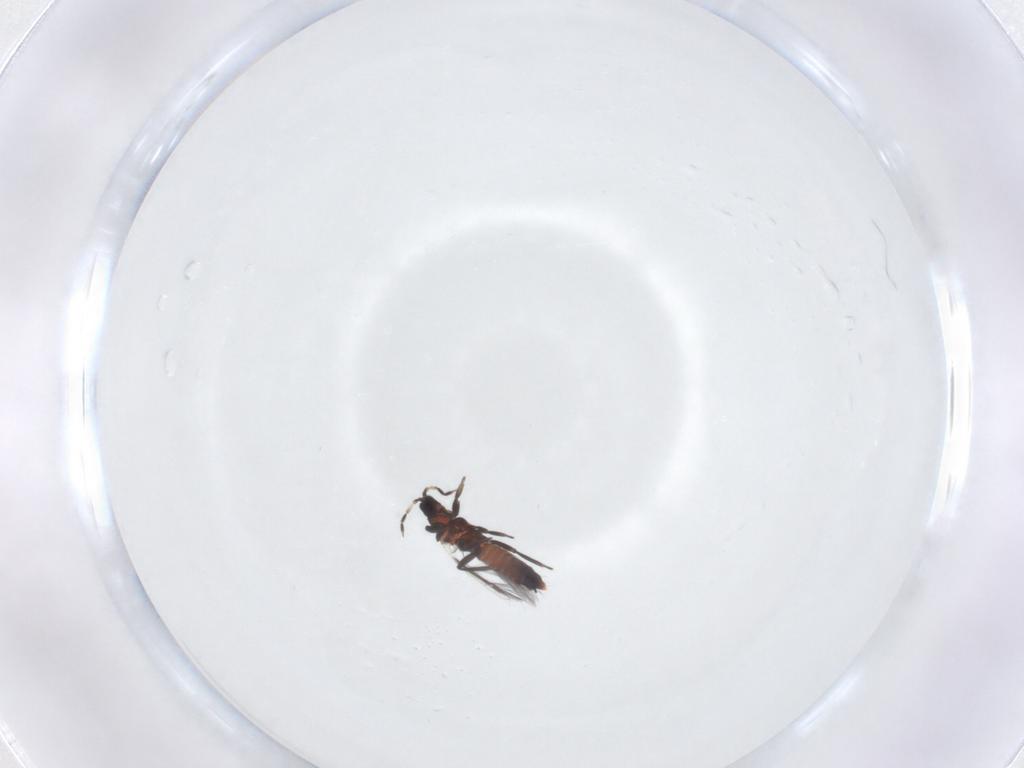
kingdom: Animalia
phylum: Arthropoda
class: Insecta
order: Thysanoptera
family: Aeolothripidae
